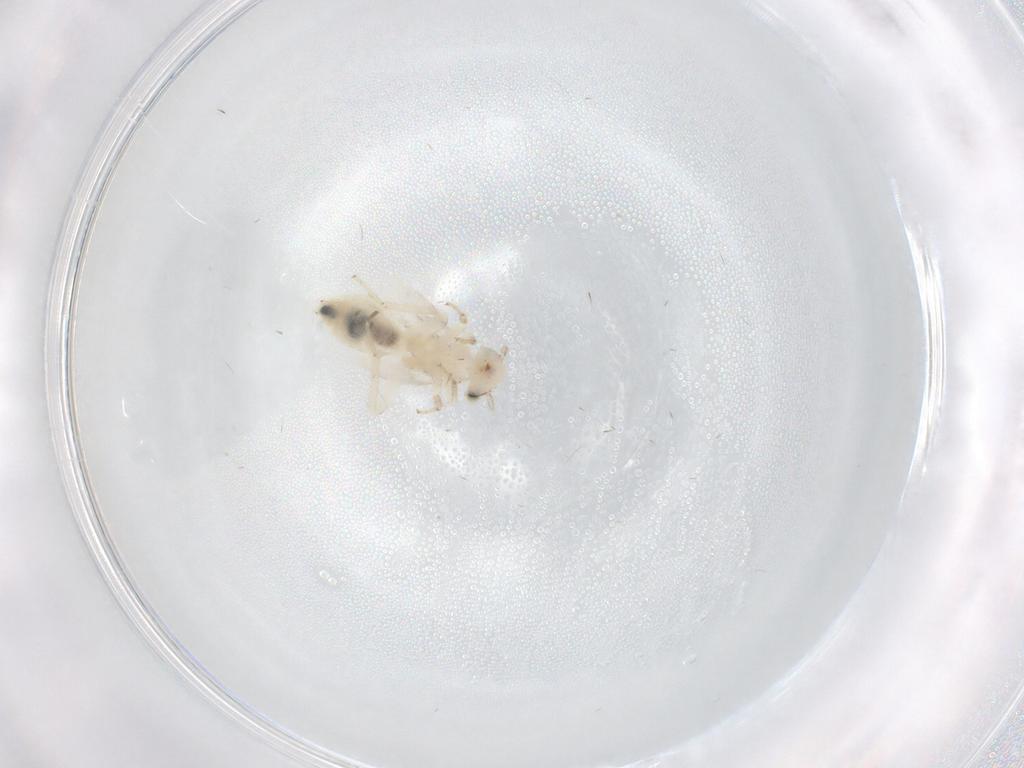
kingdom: Animalia
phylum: Arthropoda
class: Insecta
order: Psocodea
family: Lepidopsocidae
